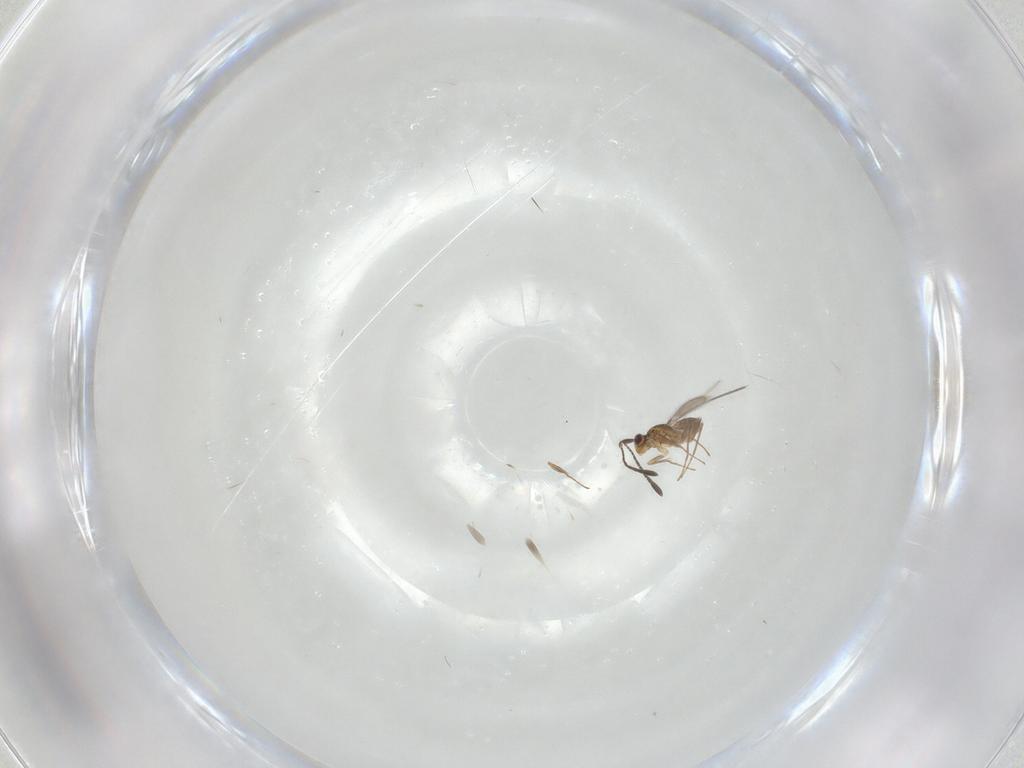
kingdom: Animalia
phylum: Arthropoda
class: Insecta
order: Hymenoptera
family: Mymaridae
